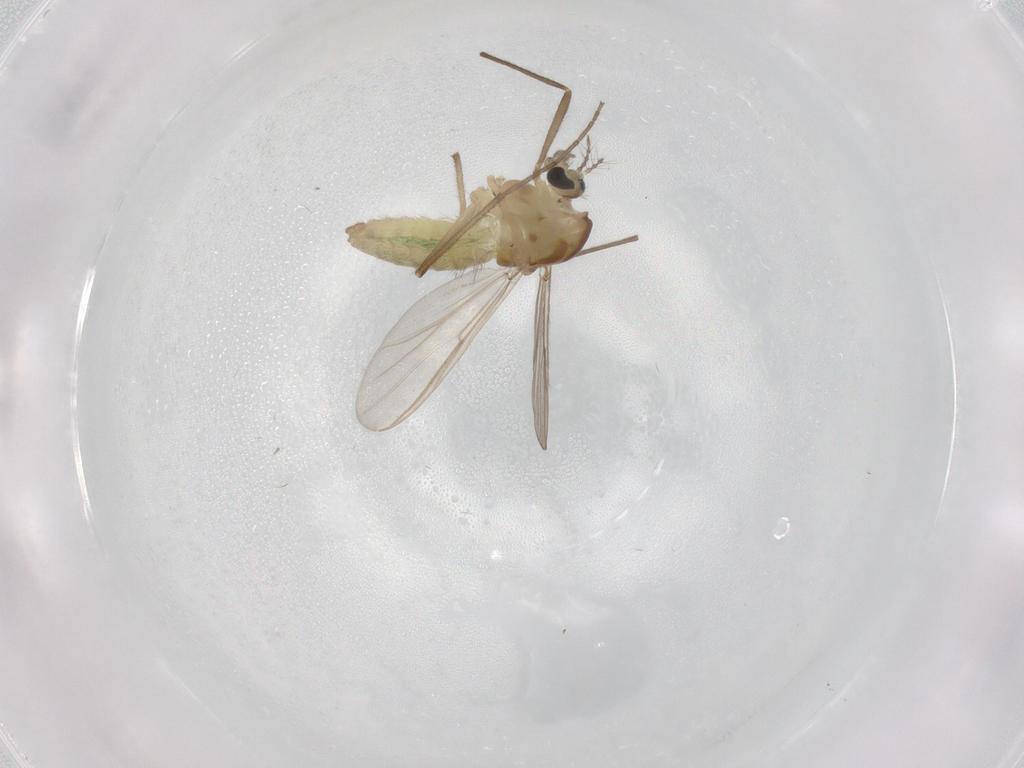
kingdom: Animalia
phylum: Arthropoda
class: Insecta
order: Diptera
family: Chironomidae
